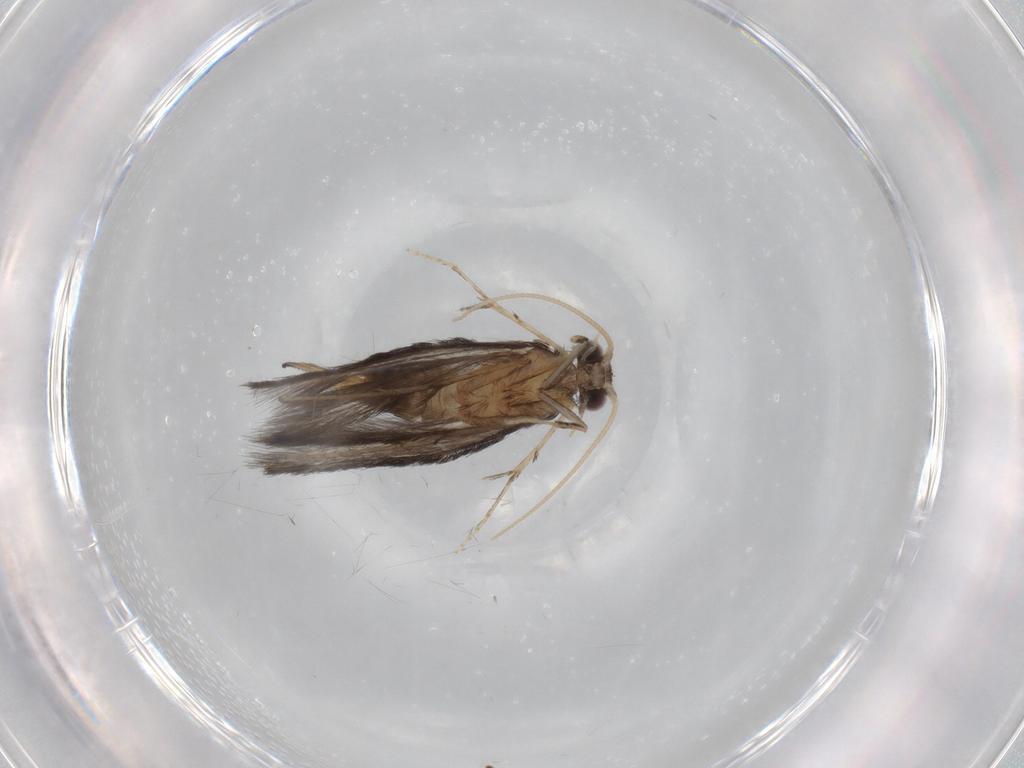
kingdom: Animalia
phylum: Arthropoda
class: Insecta
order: Trichoptera
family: Hydroptilidae
